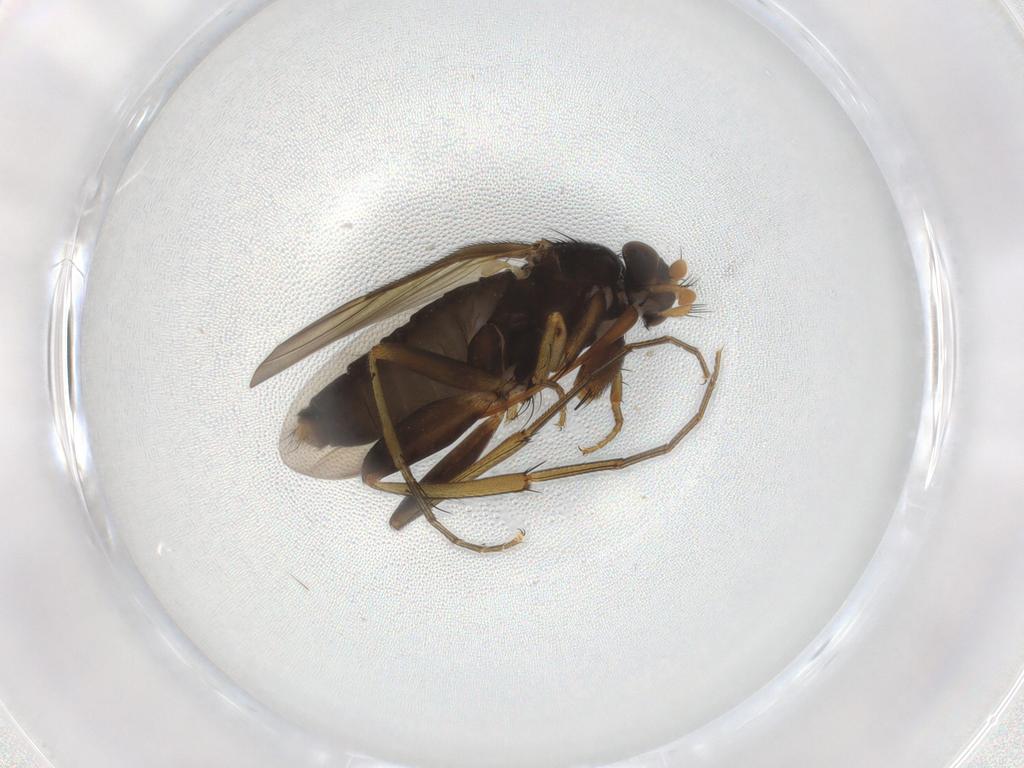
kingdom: Animalia
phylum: Arthropoda
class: Insecta
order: Diptera
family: Phoridae
